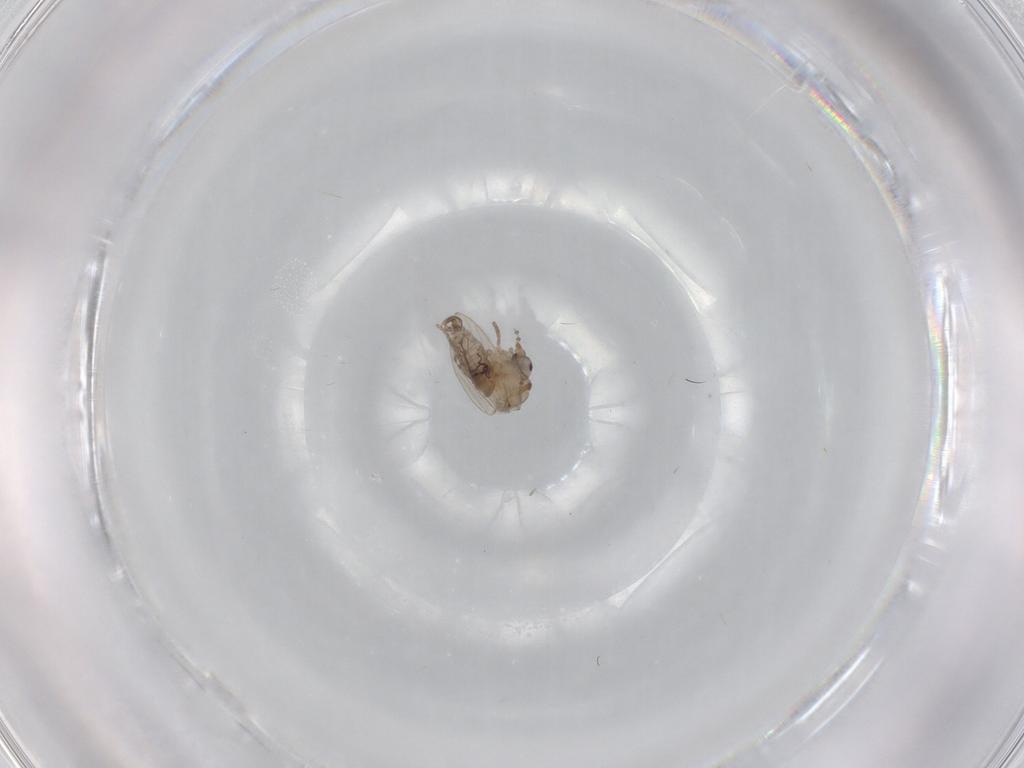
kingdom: Animalia
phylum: Arthropoda
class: Insecta
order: Diptera
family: Psychodidae
